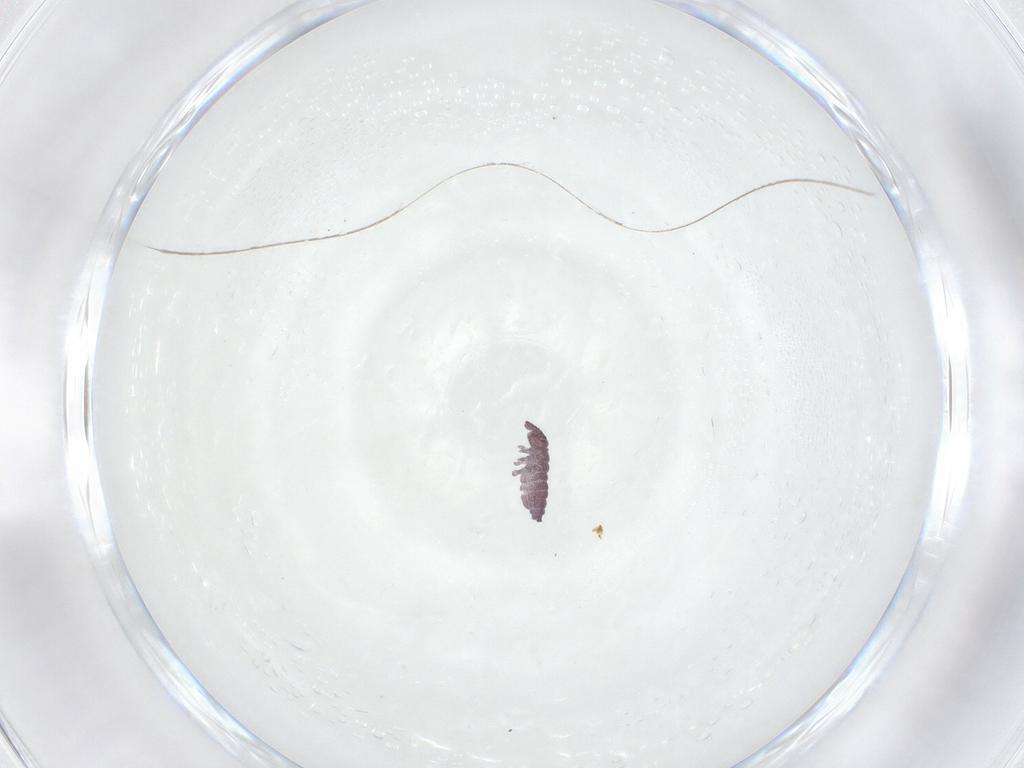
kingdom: Animalia
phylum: Arthropoda
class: Collembola
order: Poduromorpha
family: Hypogastruridae
